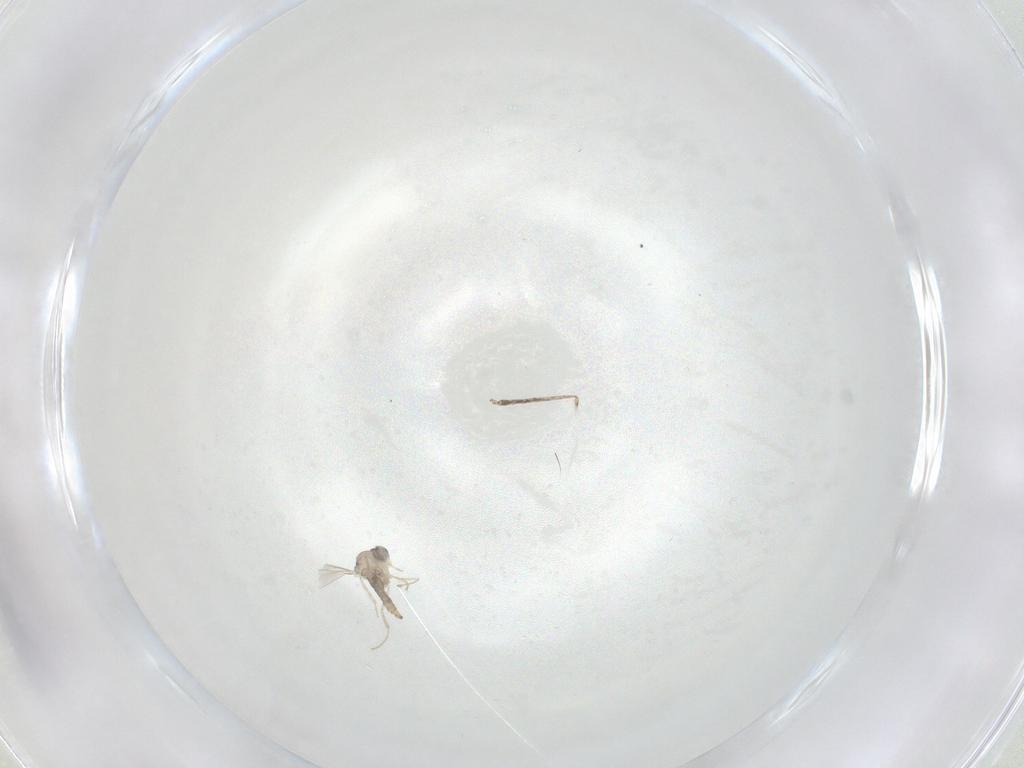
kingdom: Animalia
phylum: Arthropoda
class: Insecta
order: Diptera
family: Cecidomyiidae
